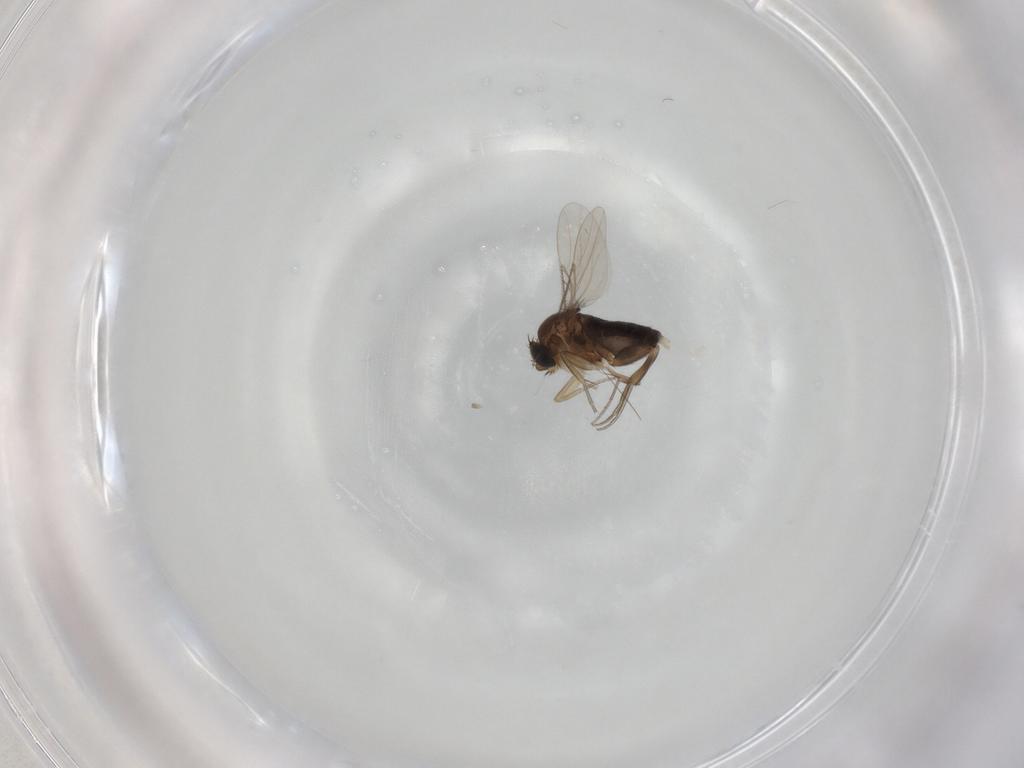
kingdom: Animalia
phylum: Arthropoda
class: Insecta
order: Diptera
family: Phoridae
